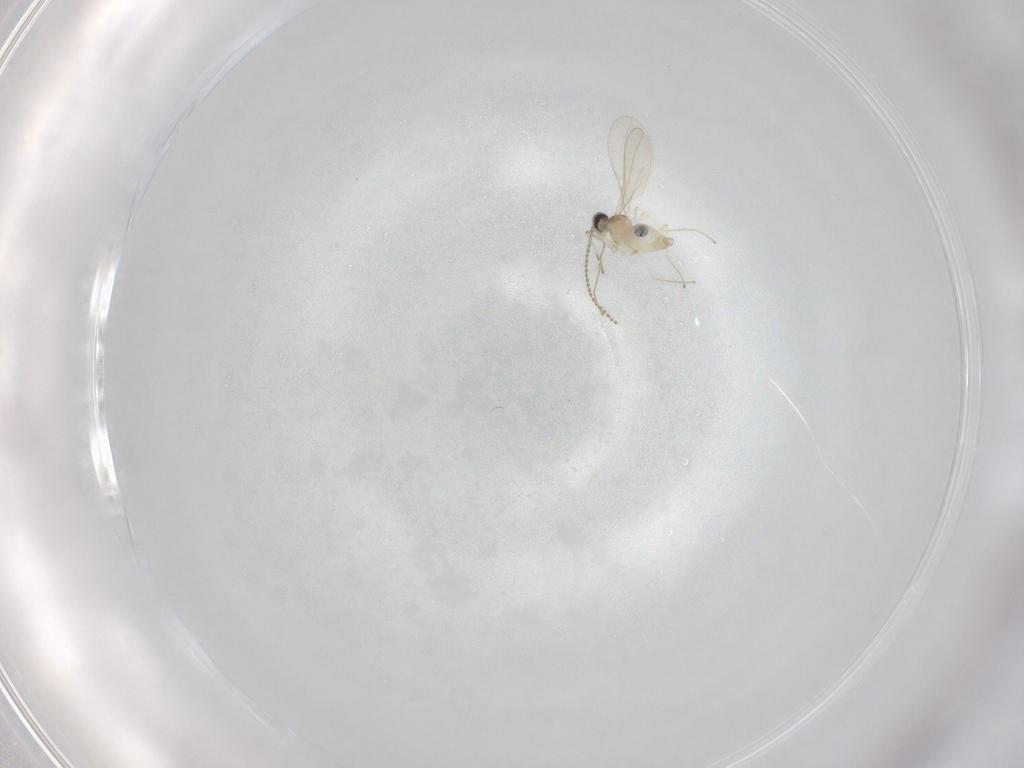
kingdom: Animalia
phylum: Arthropoda
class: Insecta
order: Diptera
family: Cecidomyiidae
